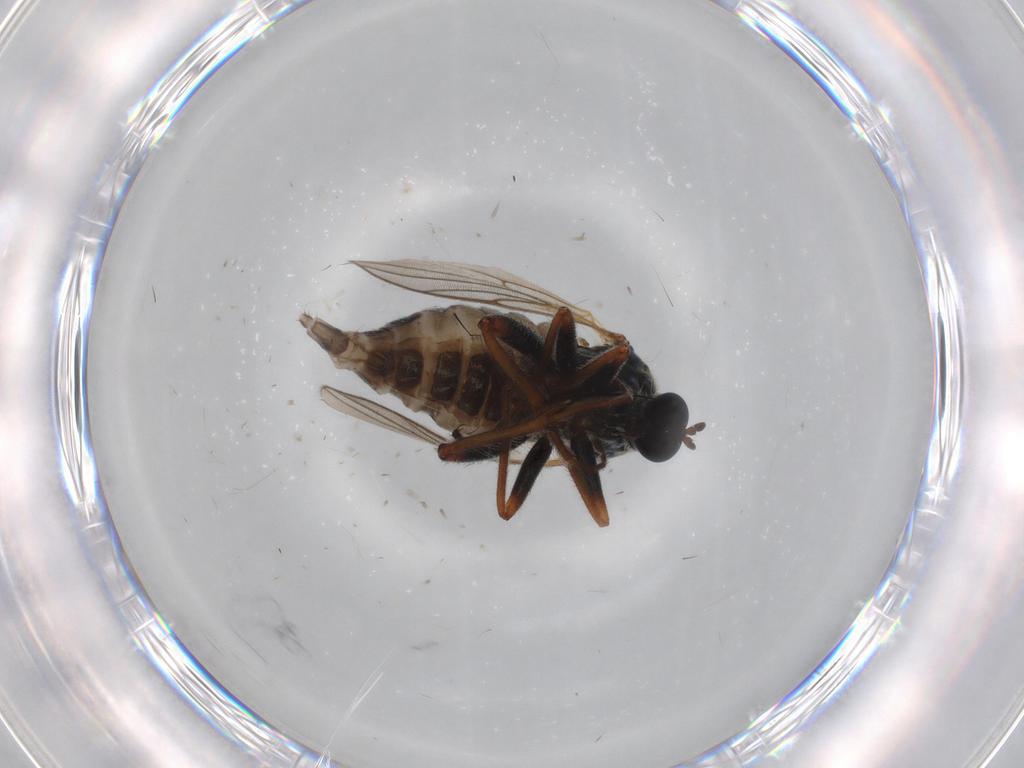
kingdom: Animalia
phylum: Arthropoda
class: Insecta
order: Diptera
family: Hybotidae
